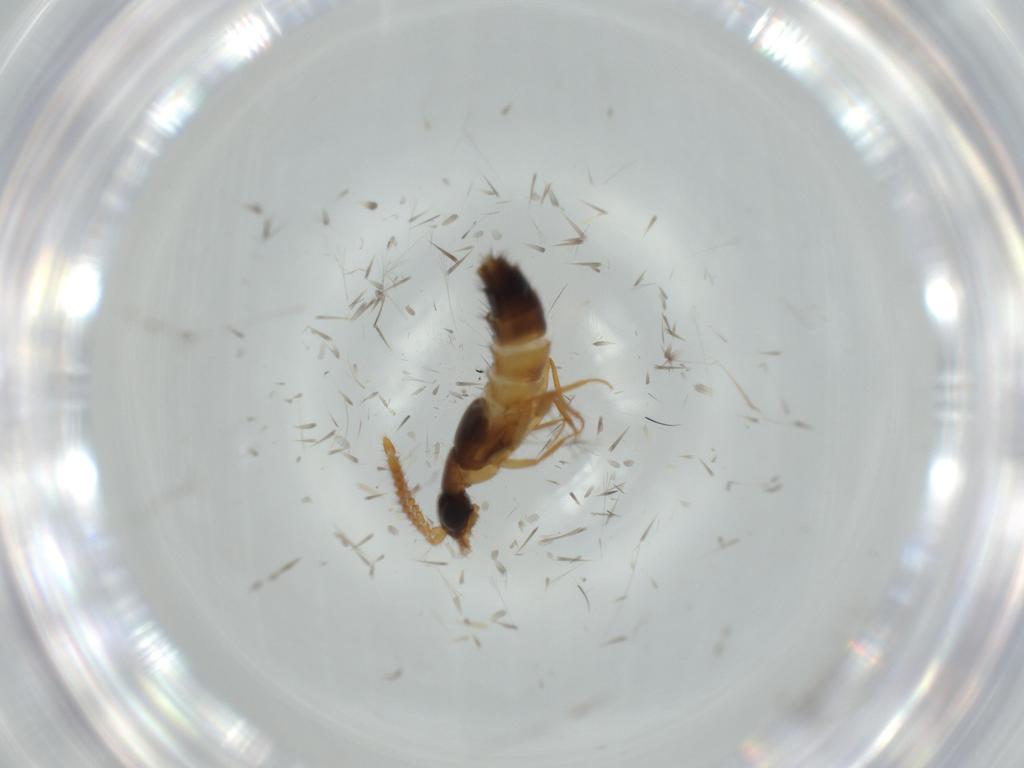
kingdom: Animalia
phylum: Arthropoda
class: Insecta
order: Coleoptera
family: Staphylinidae
